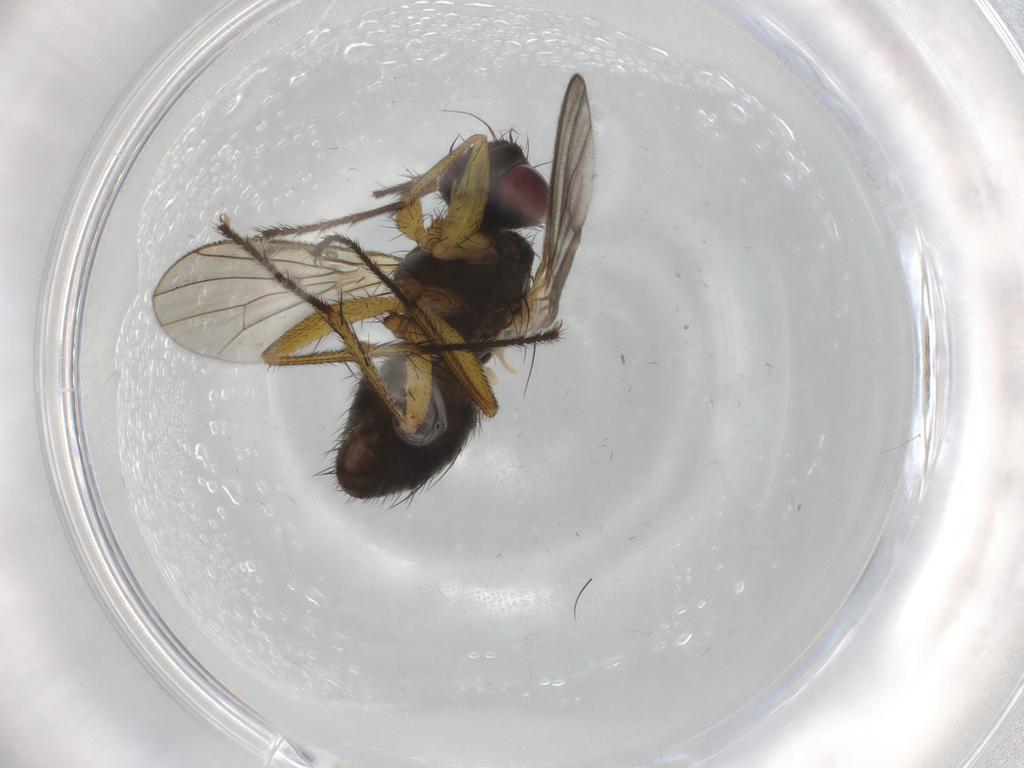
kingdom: Animalia
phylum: Arthropoda
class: Insecta
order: Diptera
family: Muscidae
